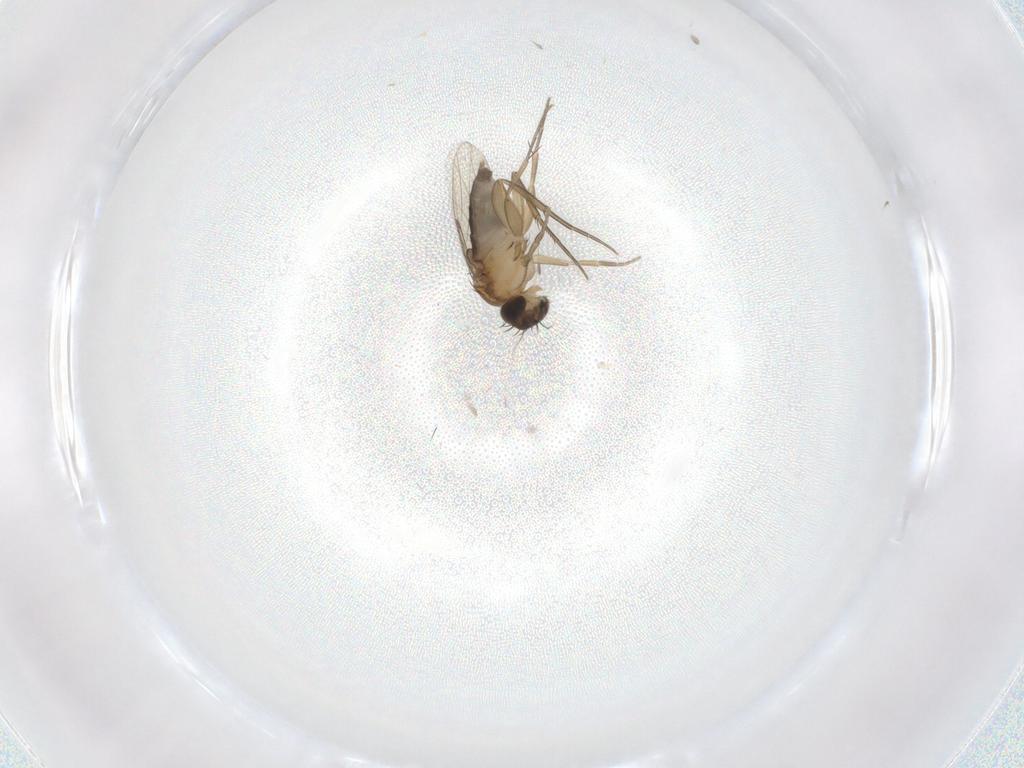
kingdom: Animalia
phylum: Arthropoda
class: Insecta
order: Diptera
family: Phoridae
